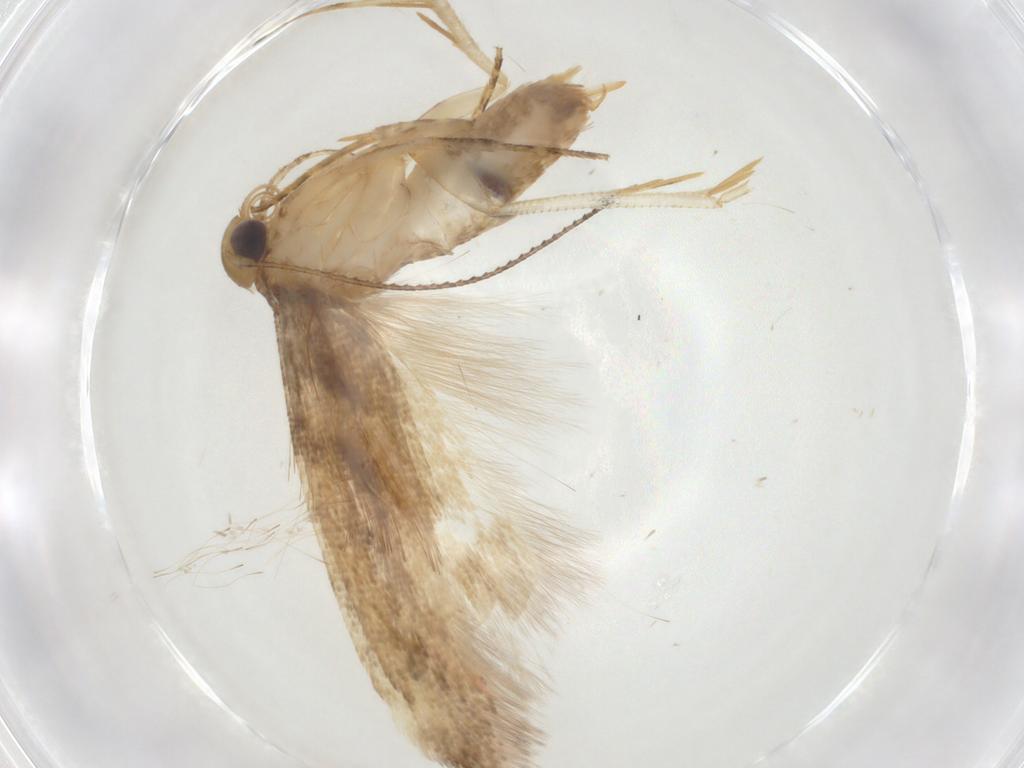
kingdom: Animalia
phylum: Arthropoda
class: Insecta
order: Lepidoptera
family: Gelechiidae
